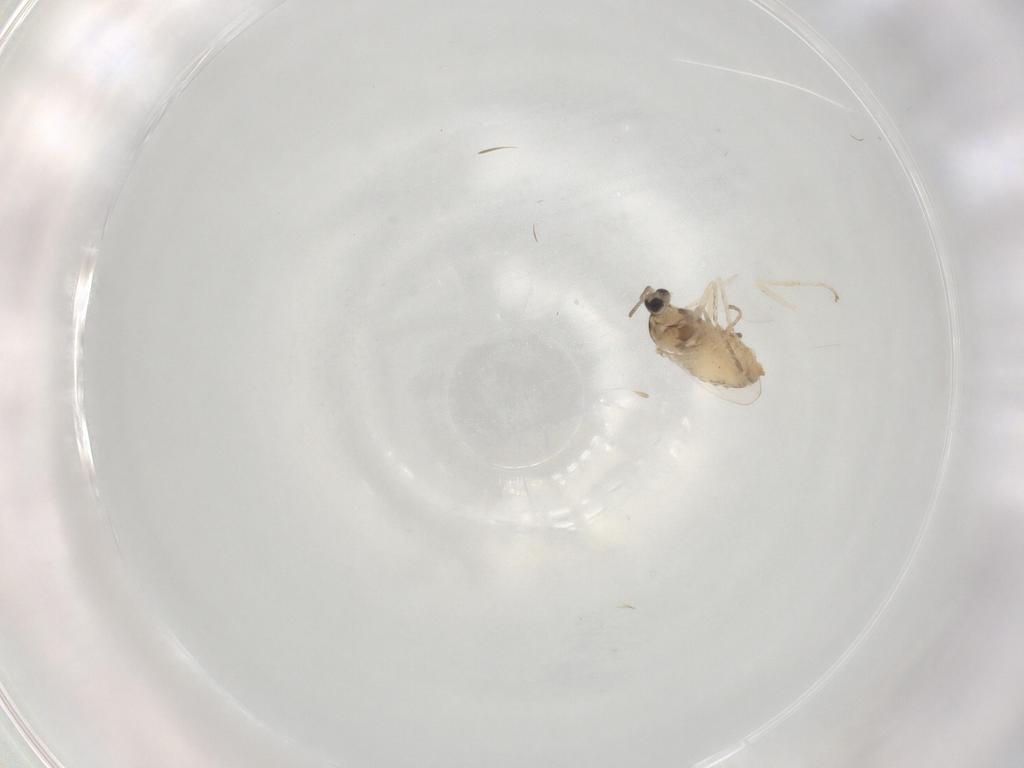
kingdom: Animalia
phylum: Arthropoda
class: Insecta
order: Diptera
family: Cecidomyiidae
